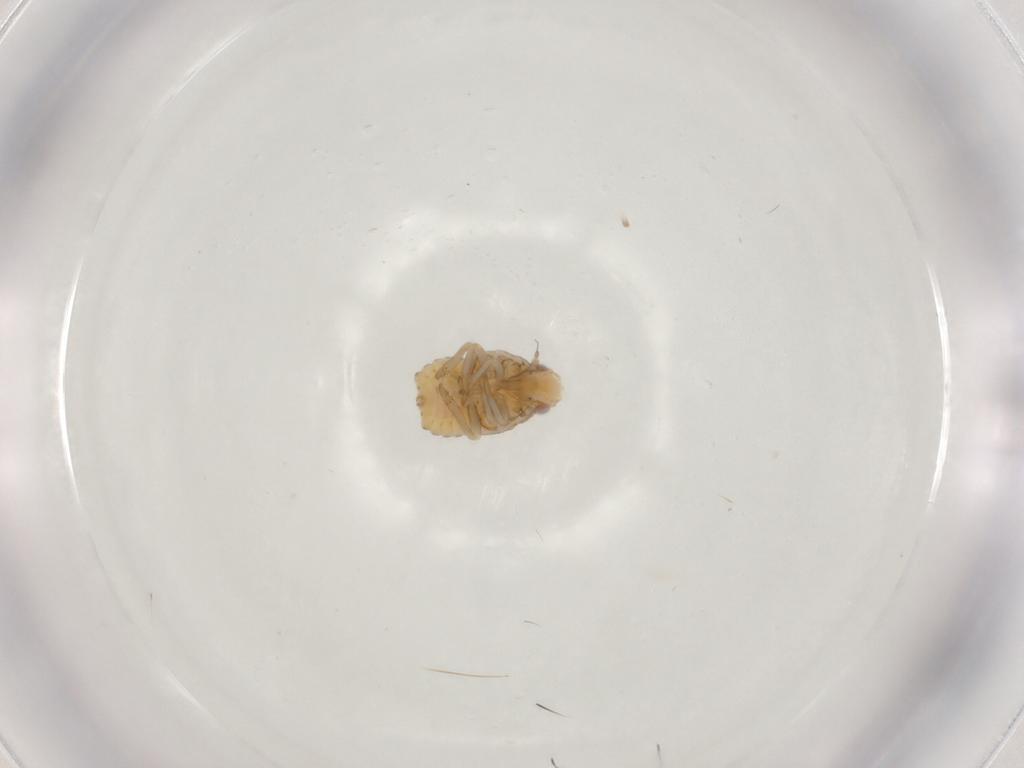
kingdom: Animalia
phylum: Arthropoda
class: Insecta
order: Hemiptera
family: Flatidae
